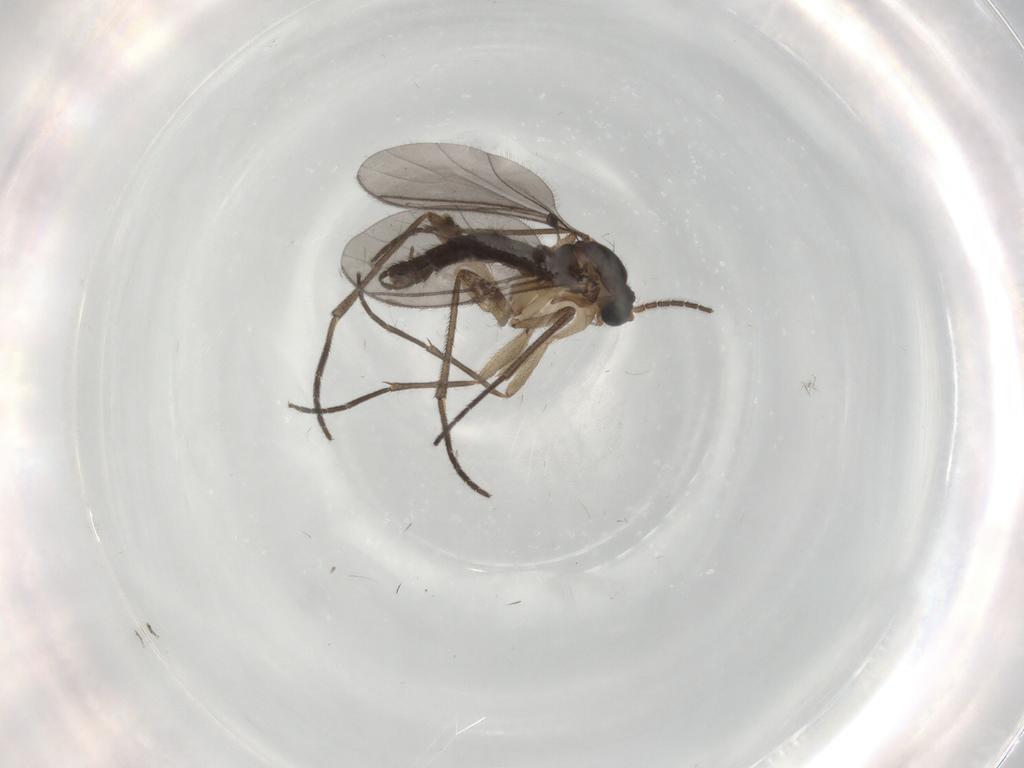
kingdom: Animalia
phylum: Arthropoda
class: Insecta
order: Diptera
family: Sciaridae
